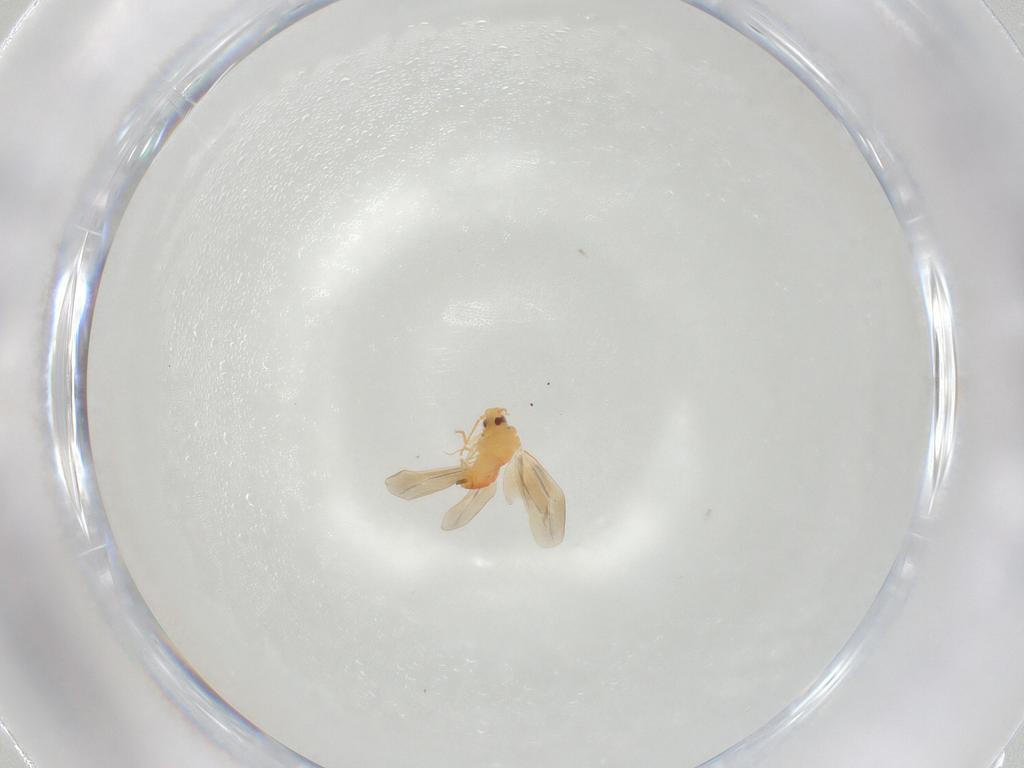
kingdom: Animalia
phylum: Arthropoda
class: Insecta
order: Hemiptera
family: Aleyrodidae
